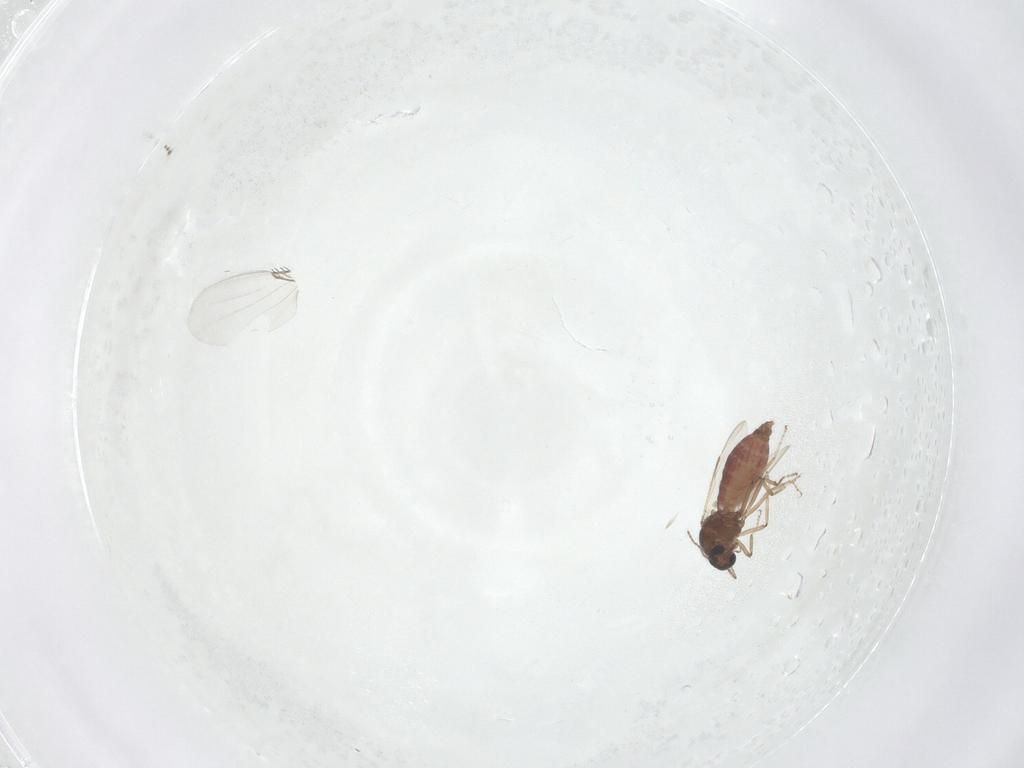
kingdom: Animalia
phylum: Arthropoda
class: Insecta
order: Diptera
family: Ceratopogonidae
